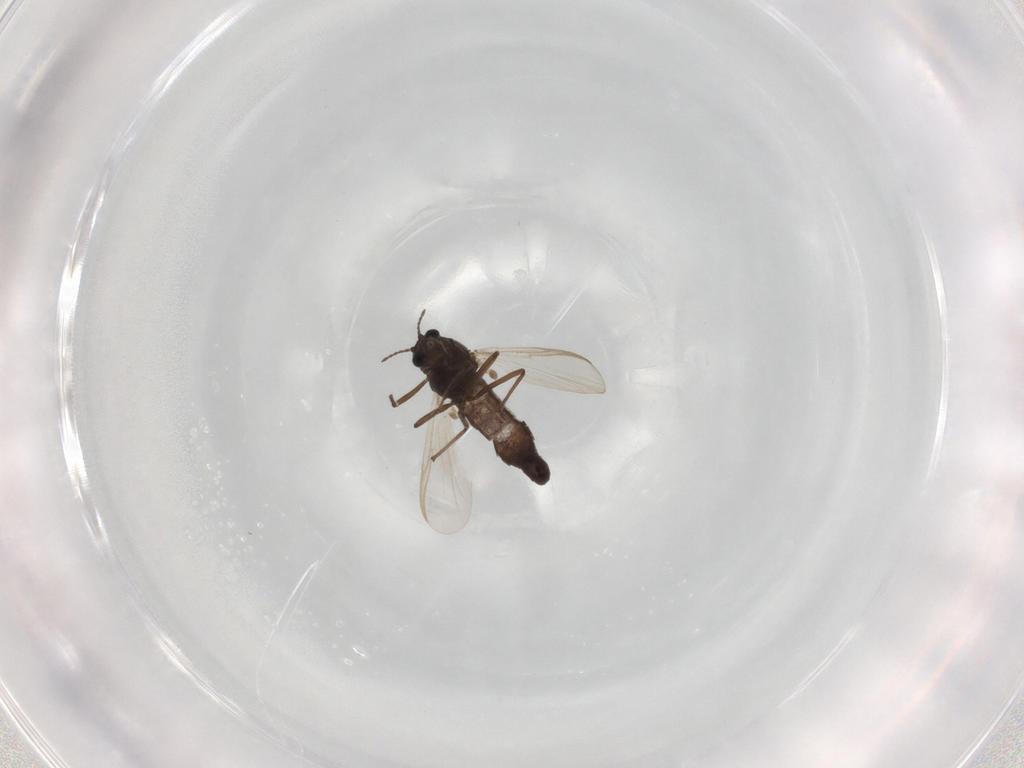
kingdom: Animalia
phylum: Arthropoda
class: Insecta
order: Diptera
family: Chironomidae
